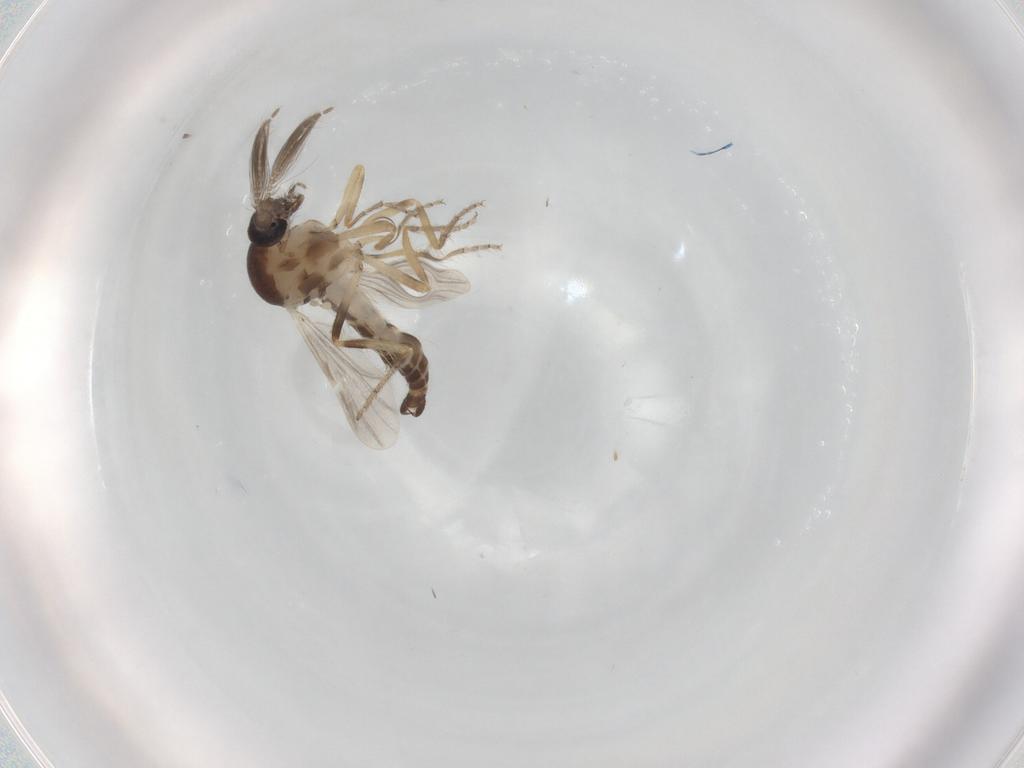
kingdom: Animalia
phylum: Arthropoda
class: Insecta
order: Diptera
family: Ceratopogonidae
